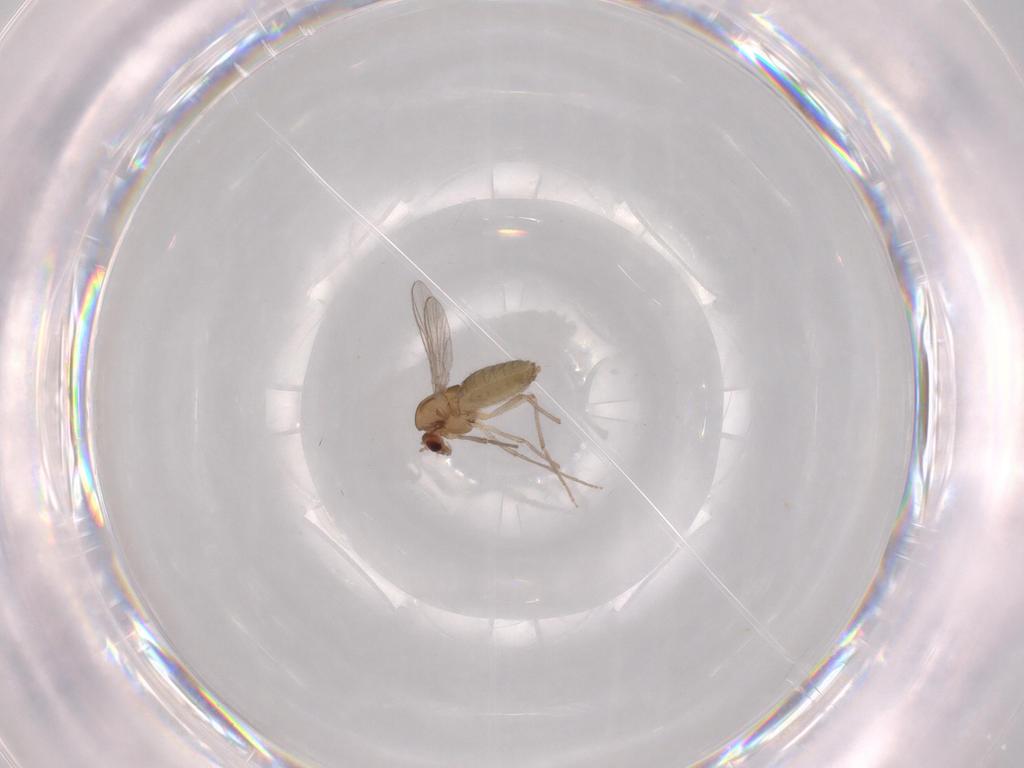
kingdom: Animalia
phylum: Arthropoda
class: Insecta
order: Diptera
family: Chironomidae
